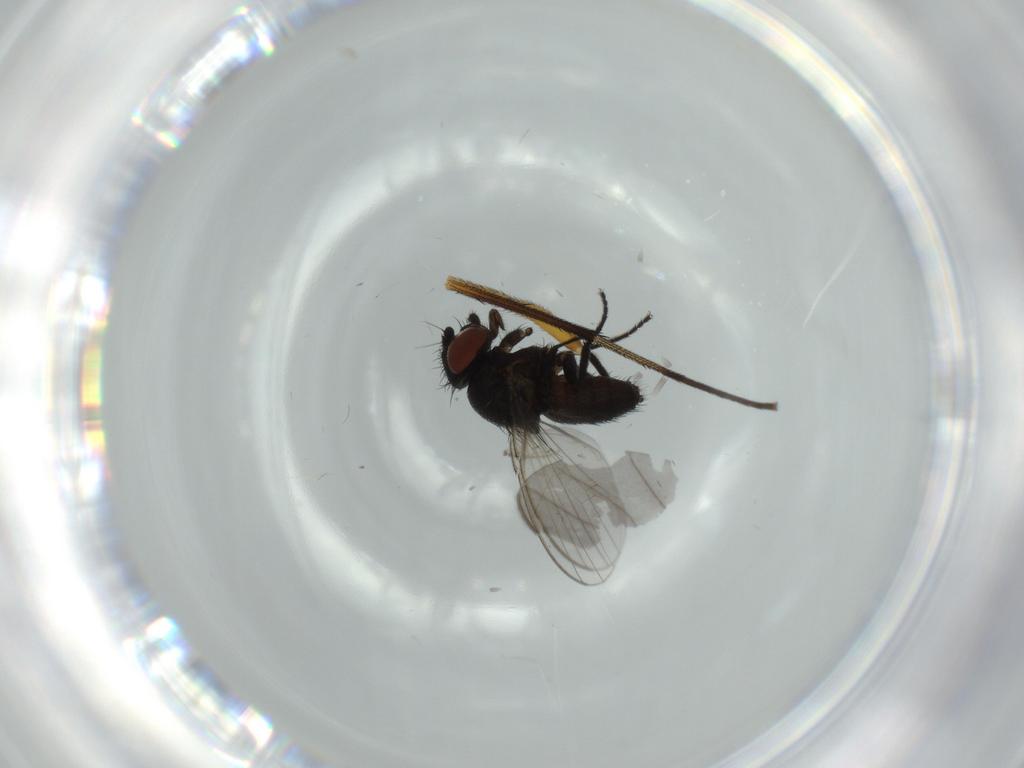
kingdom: Animalia
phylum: Arthropoda
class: Insecta
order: Diptera
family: Milichiidae
